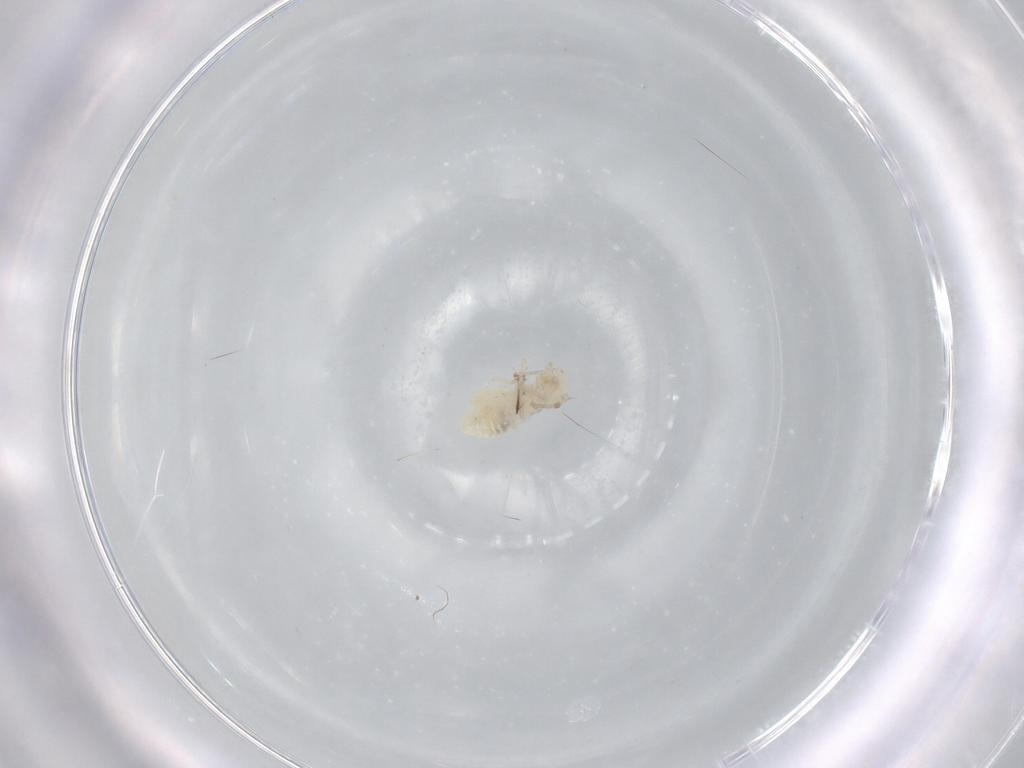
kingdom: Animalia
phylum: Arthropoda
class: Insecta
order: Psocodea
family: Caeciliusidae
